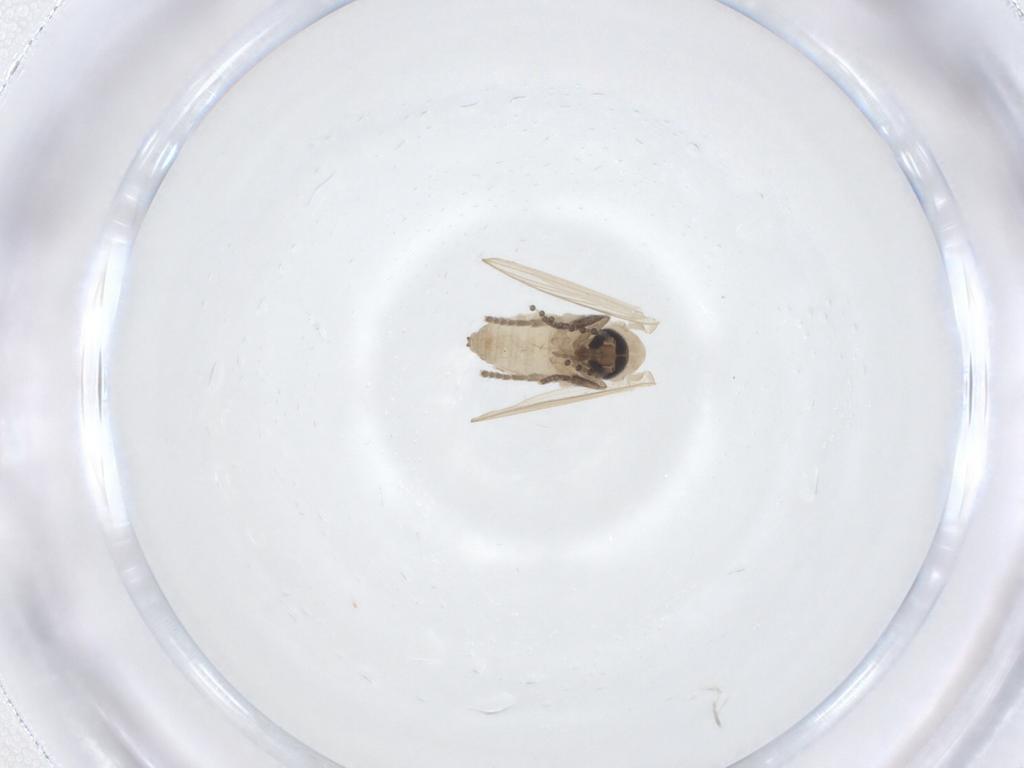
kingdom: Animalia
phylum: Arthropoda
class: Insecta
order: Diptera
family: Psychodidae
